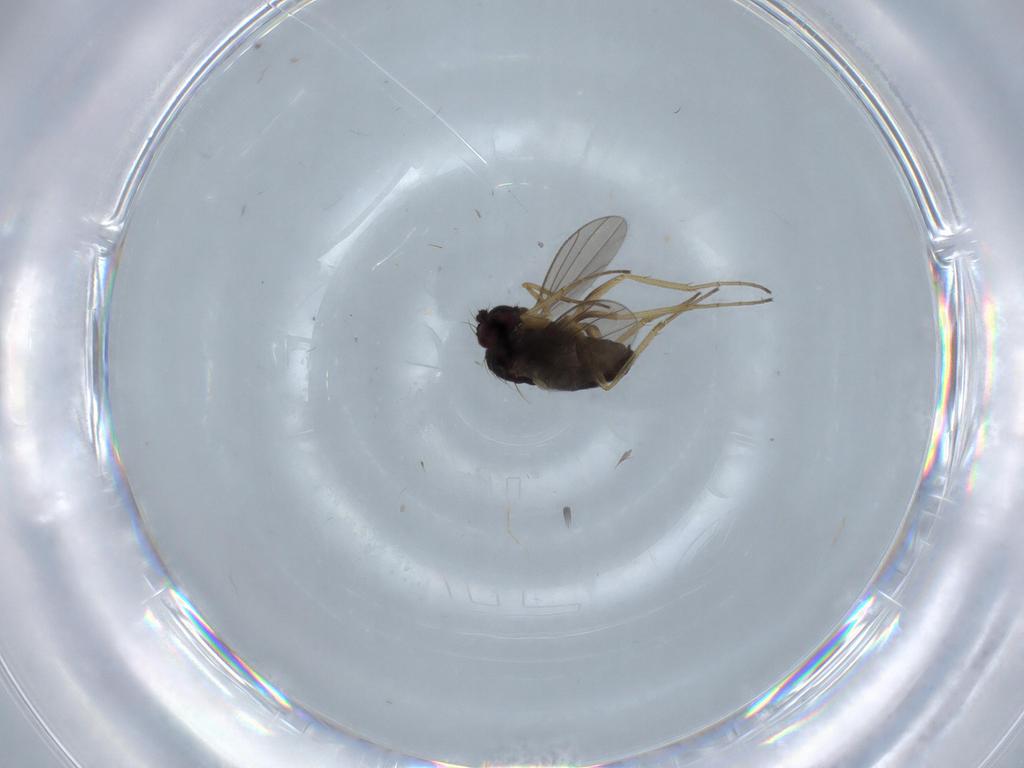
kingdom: Animalia
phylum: Arthropoda
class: Insecta
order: Diptera
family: Dolichopodidae
